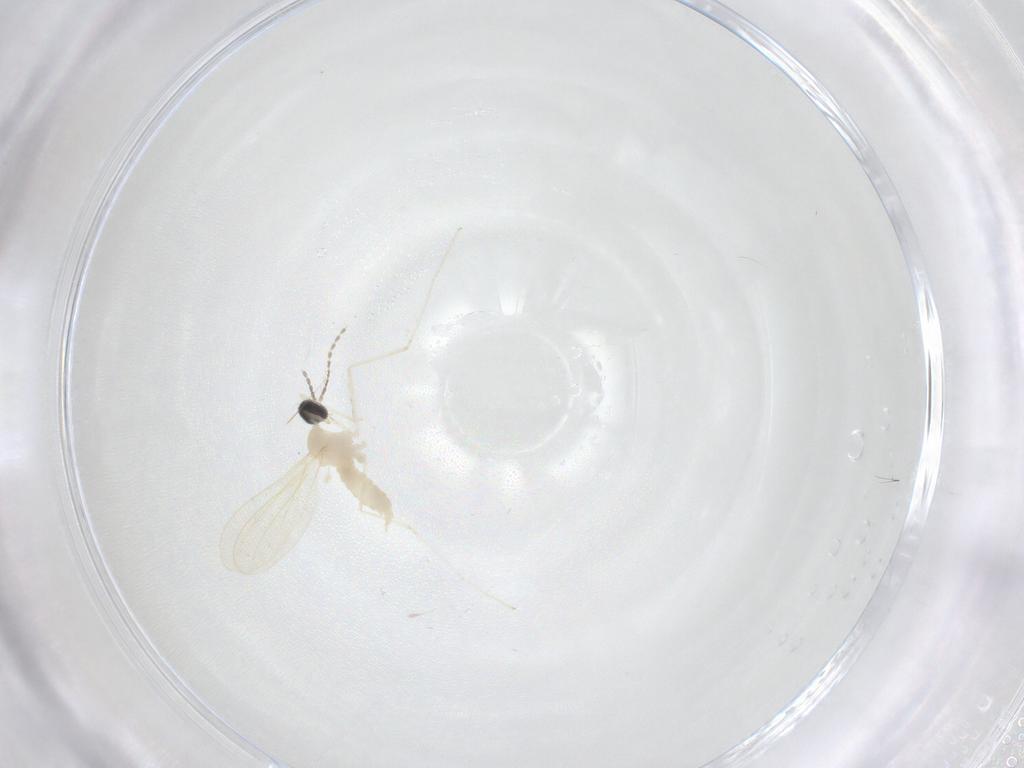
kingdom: Animalia
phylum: Arthropoda
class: Insecta
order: Diptera
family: Cecidomyiidae
